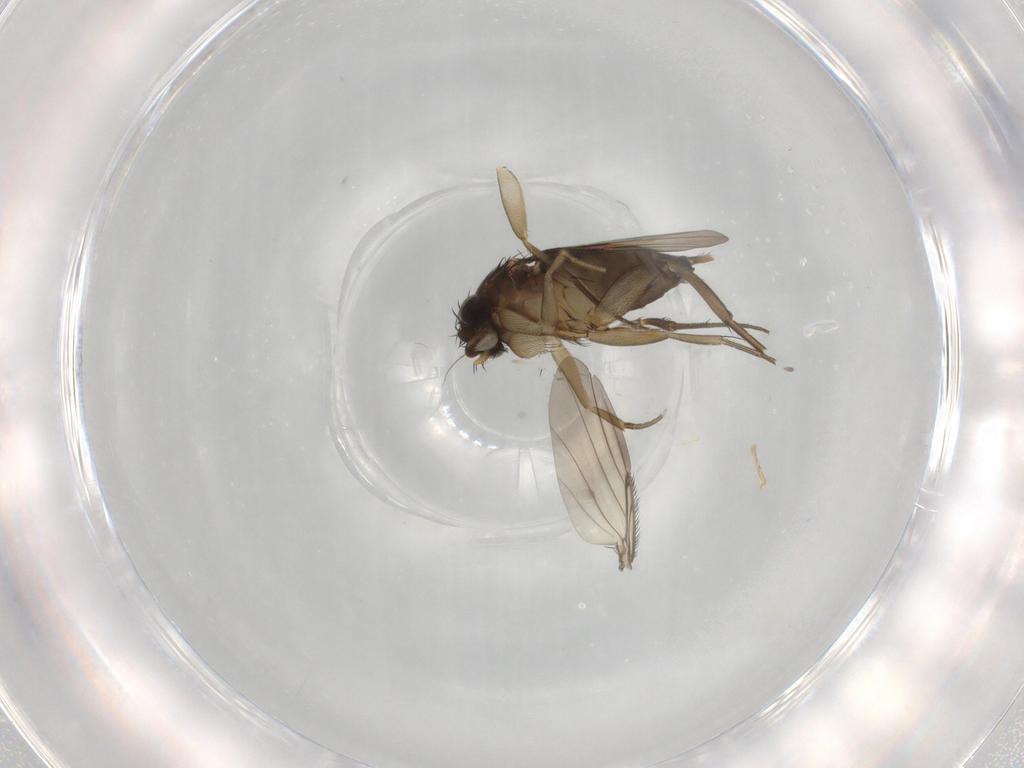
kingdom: Animalia
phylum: Arthropoda
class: Insecta
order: Diptera
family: Phoridae
